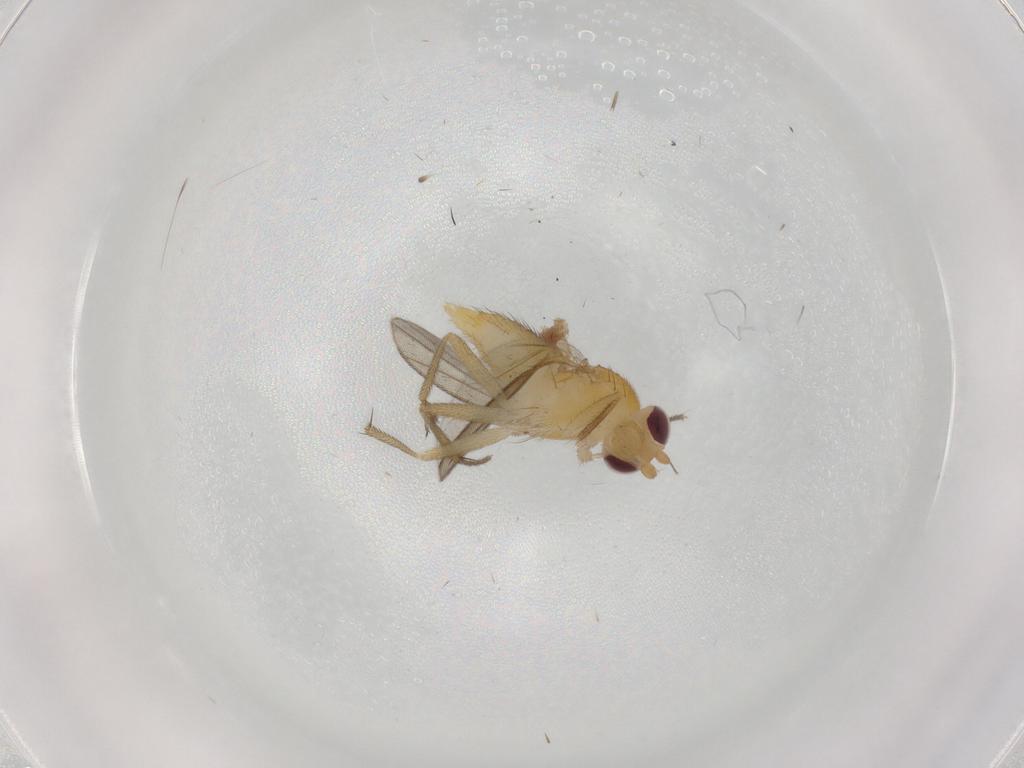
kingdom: Animalia
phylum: Arthropoda
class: Insecta
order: Diptera
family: Clusiidae
